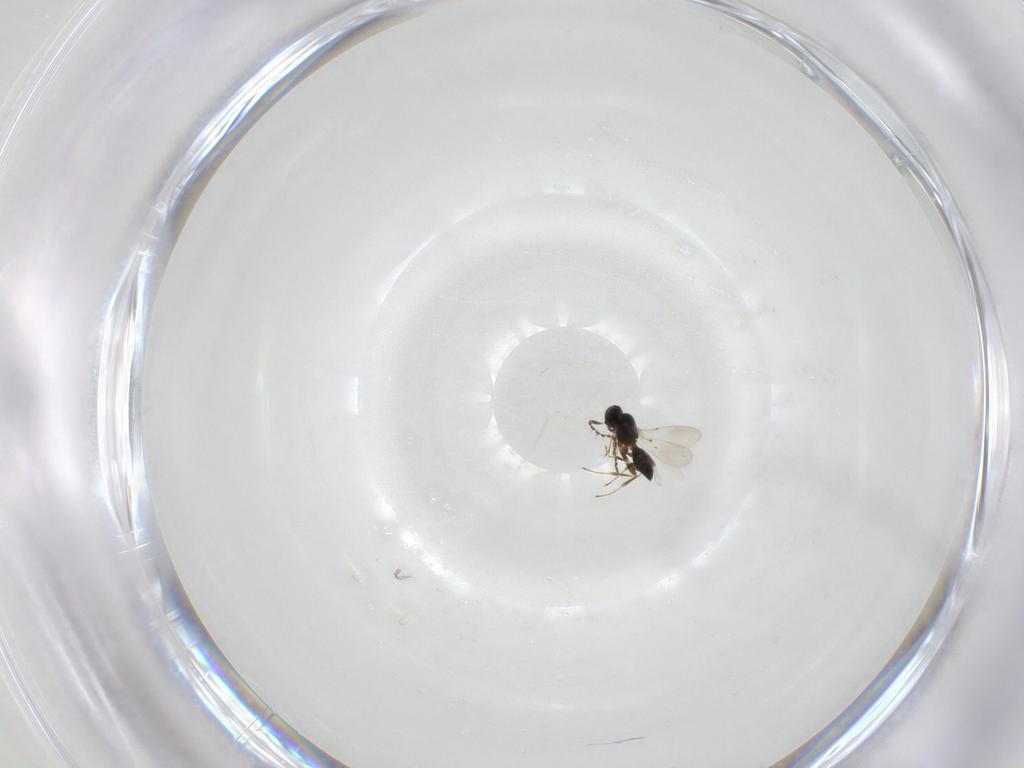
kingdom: Animalia
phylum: Arthropoda
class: Insecta
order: Hymenoptera
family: Platygastridae
